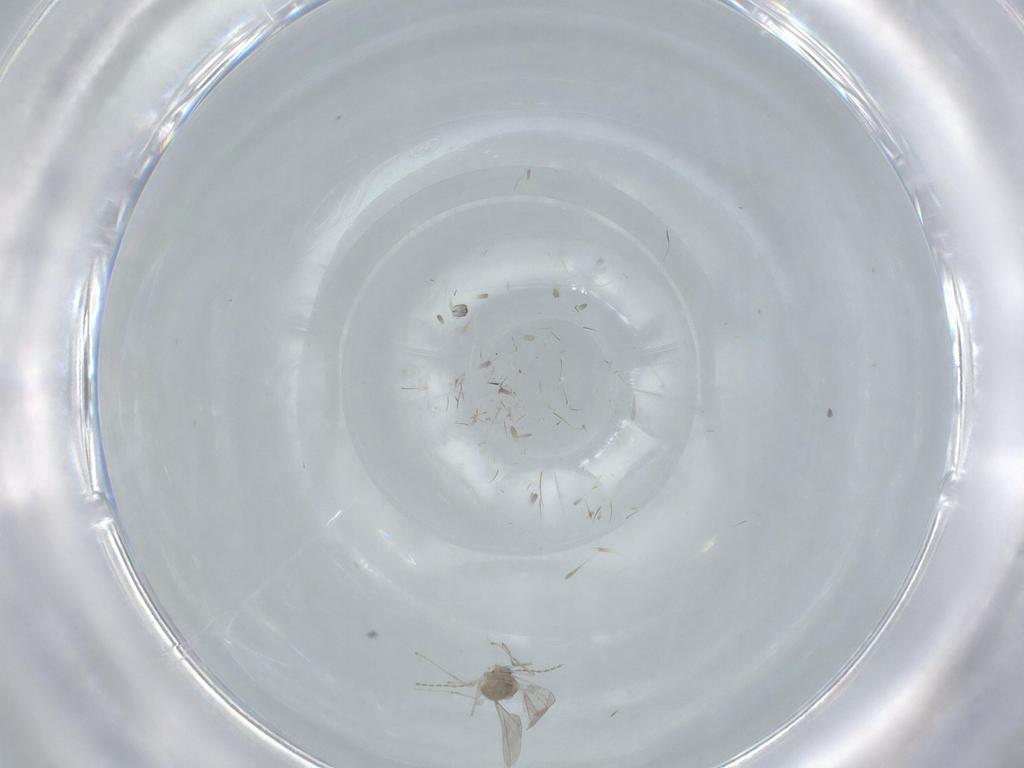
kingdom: Animalia
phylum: Arthropoda
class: Insecta
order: Diptera
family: Cecidomyiidae
